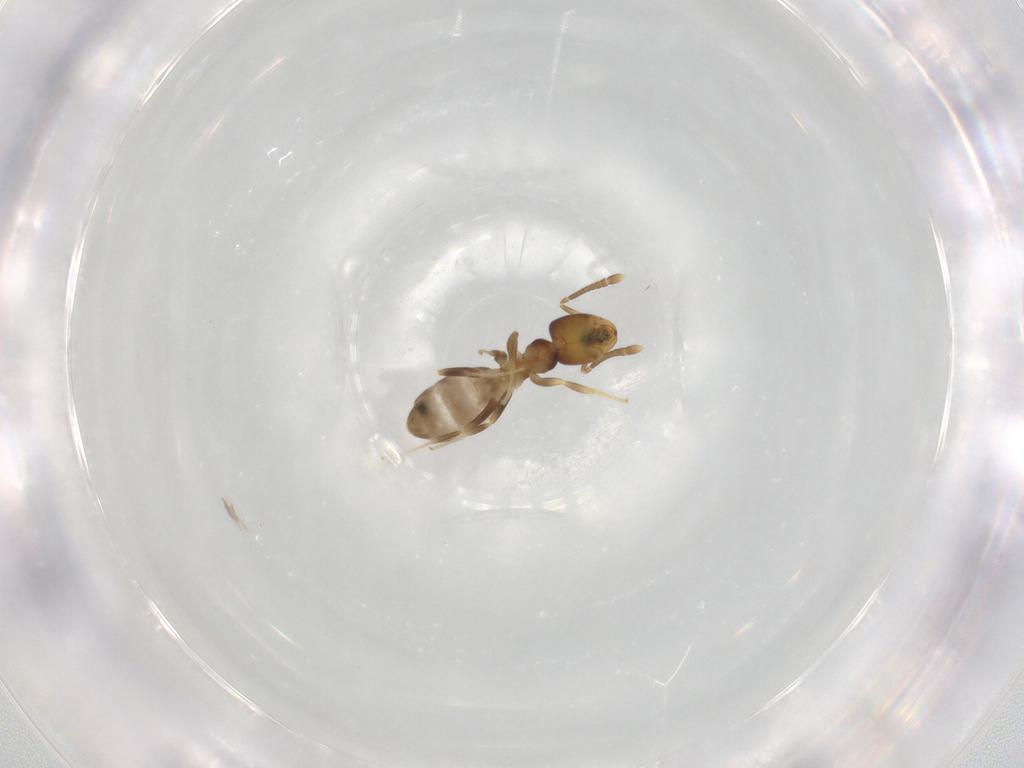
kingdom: Animalia
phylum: Arthropoda
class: Insecta
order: Hymenoptera
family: Formicidae
